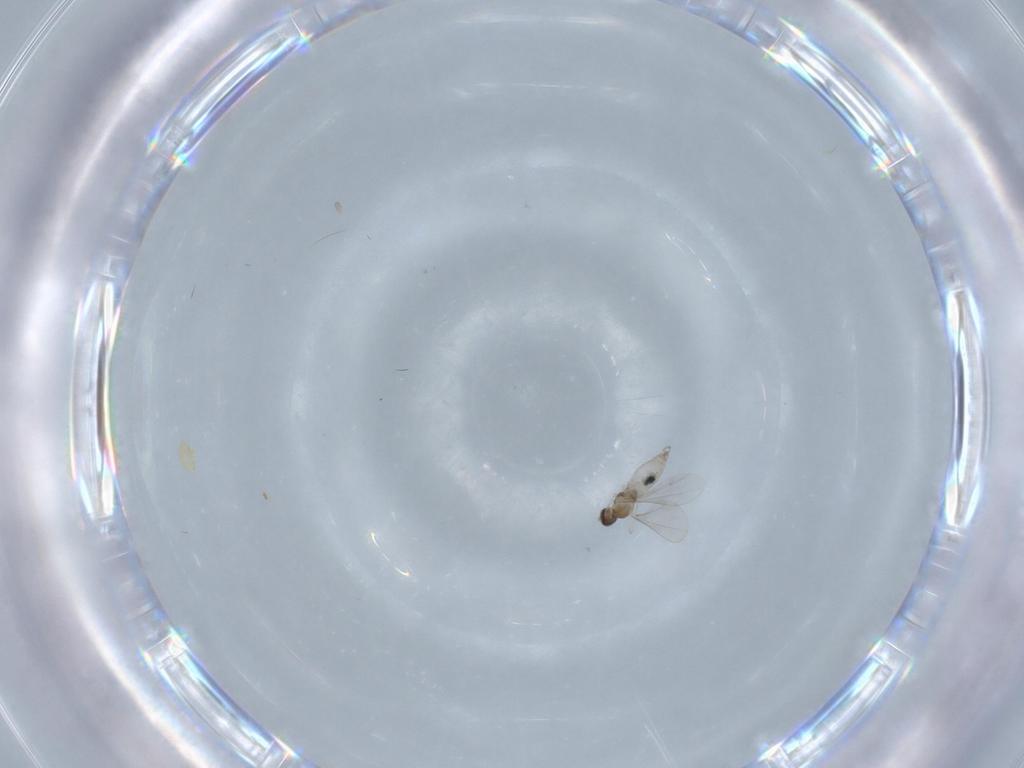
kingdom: Animalia
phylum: Arthropoda
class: Insecta
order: Diptera
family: Cecidomyiidae
